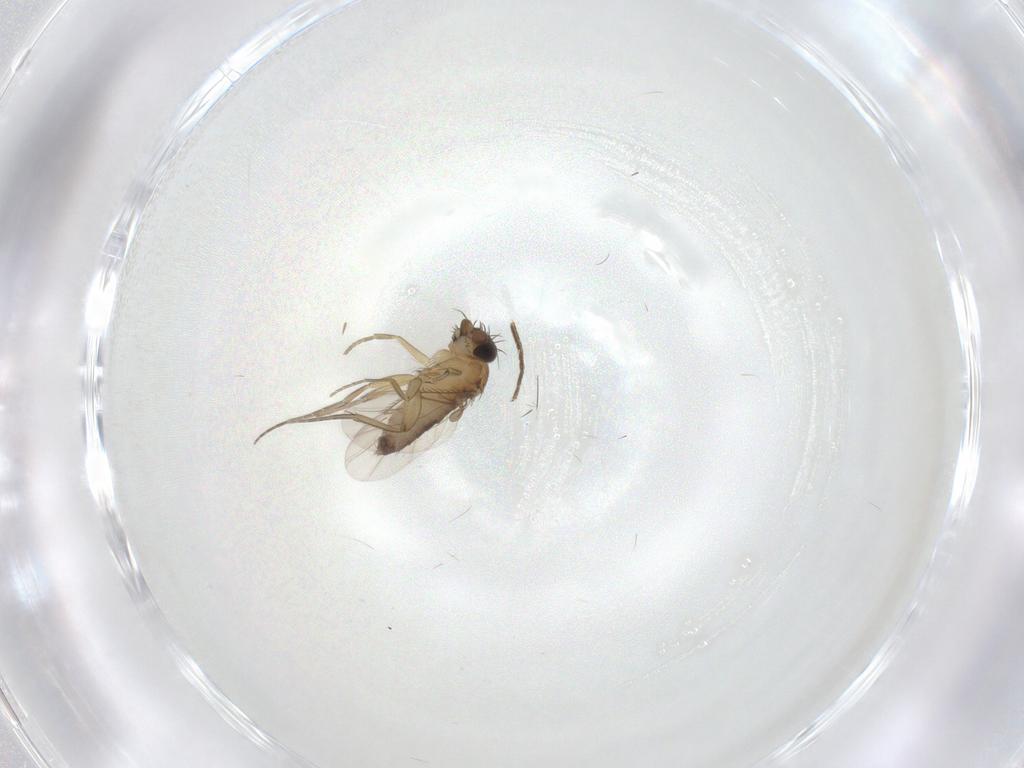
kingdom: Animalia
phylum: Arthropoda
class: Insecta
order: Diptera
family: Phoridae
